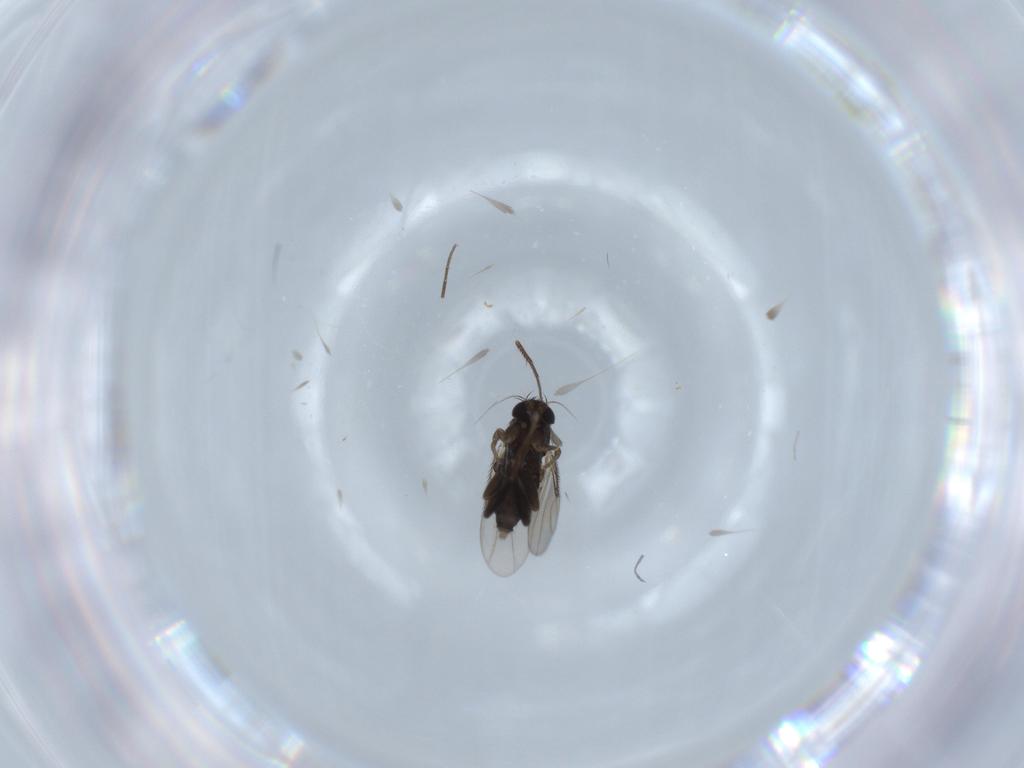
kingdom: Animalia
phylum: Arthropoda
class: Insecta
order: Diptera
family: Phoridae
